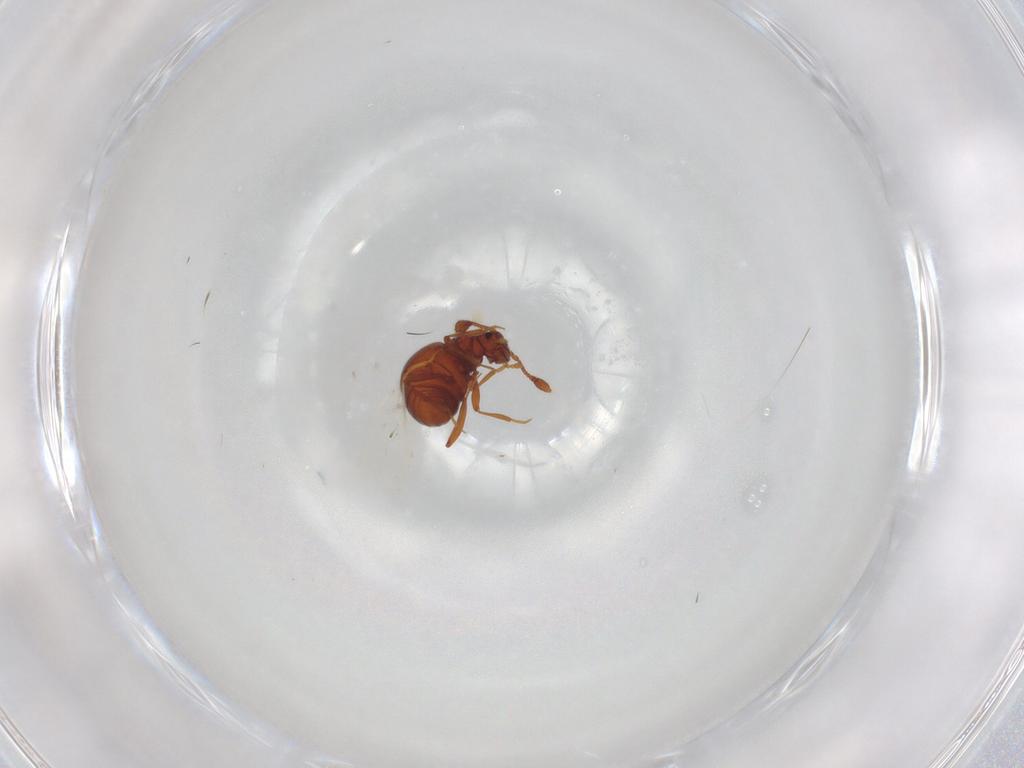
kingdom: Animalia
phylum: Arthropoda
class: Insecta
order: Coleoptera
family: Staphylinidae
